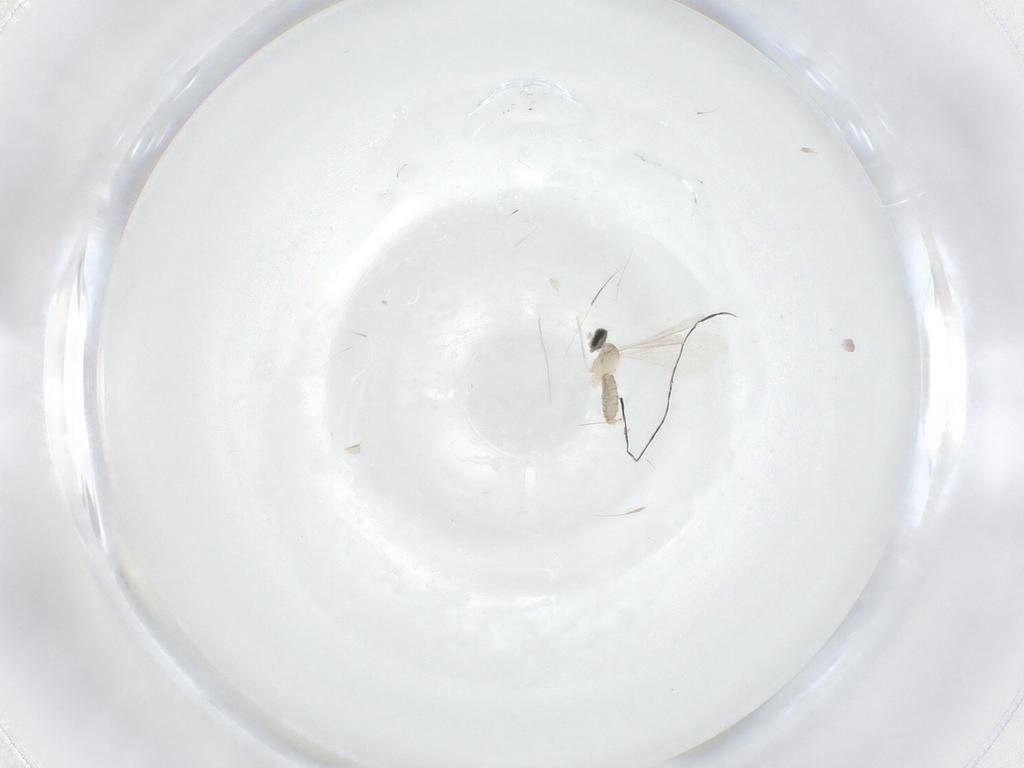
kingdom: Animalia
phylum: Arthropoda
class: Insecta
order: Diptera
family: Cecidomyiidae
